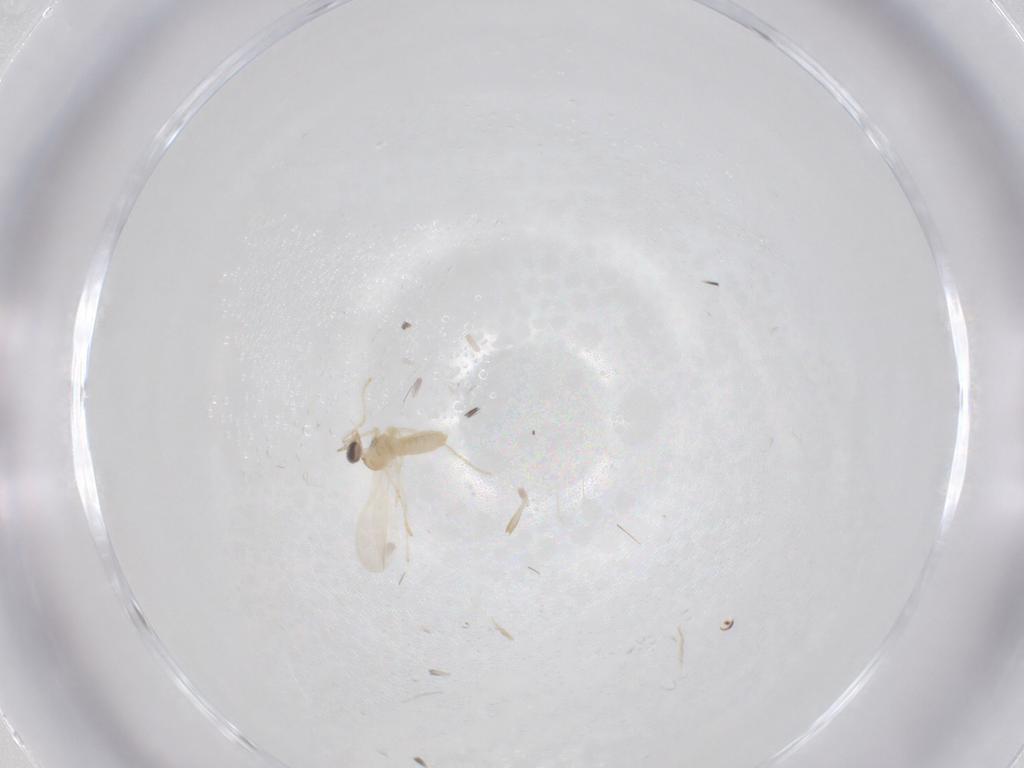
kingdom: Animalia
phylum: Arthropoda
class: Insecta
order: Diptera
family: Cecidomyiidae
